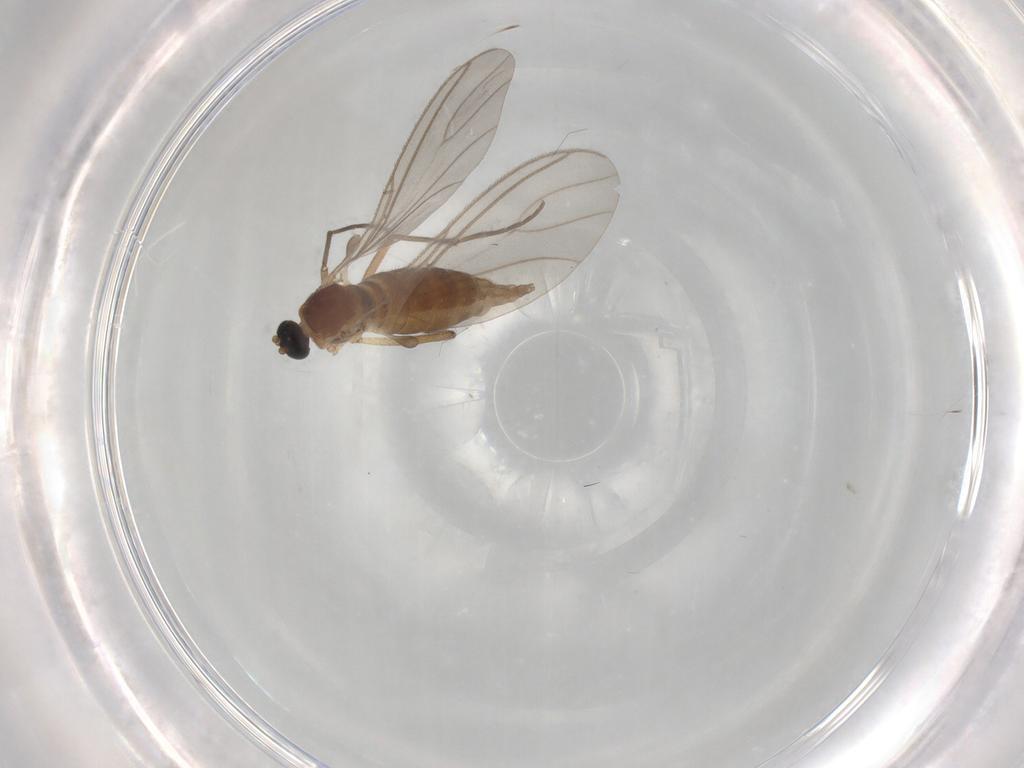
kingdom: Animalia
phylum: Arthropoda
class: Insecta
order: Diptera
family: Sciaridae
